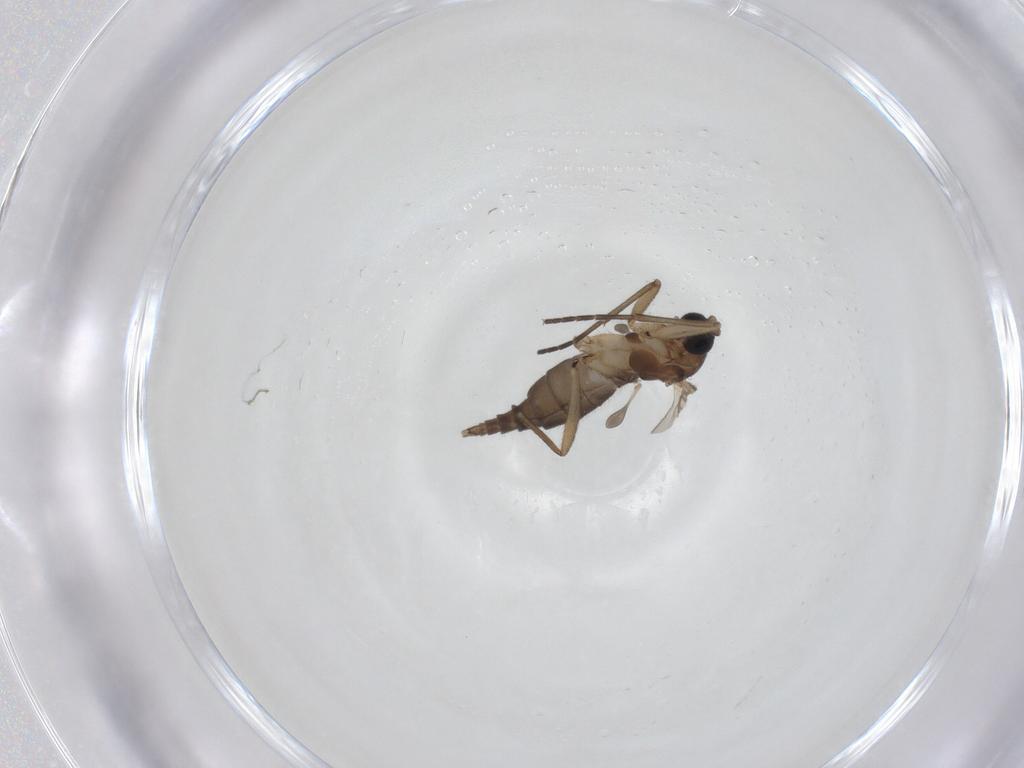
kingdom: Animalia
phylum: Arthropoda
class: Insecta
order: Diptera
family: Sciaridae
